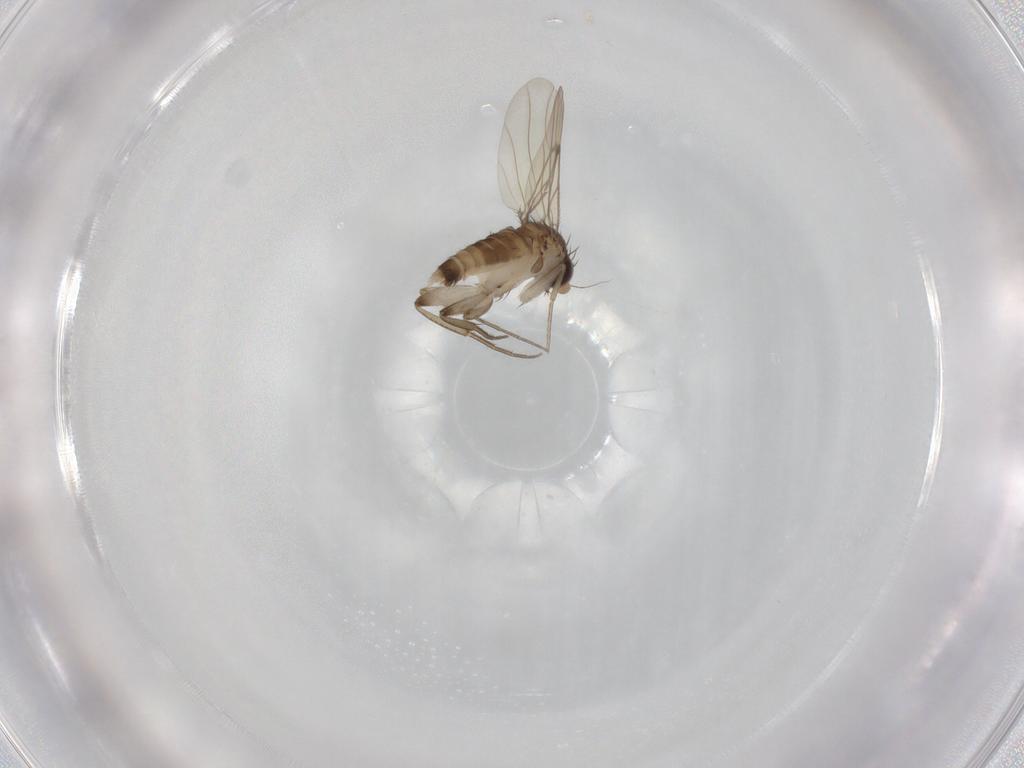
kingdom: Animalia
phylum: Arthropoda
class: Insecta
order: Diptera
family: Phoridae
